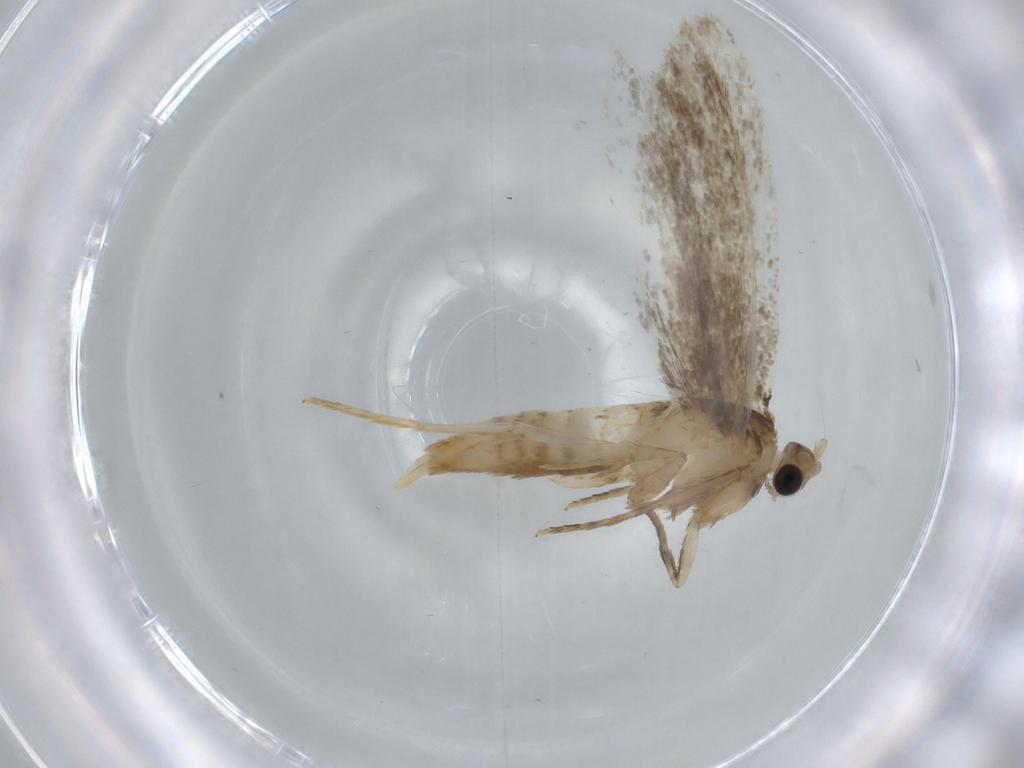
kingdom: Animalia
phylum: Arthropoda
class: Insecta
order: Lepidoptera
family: Tineidae
